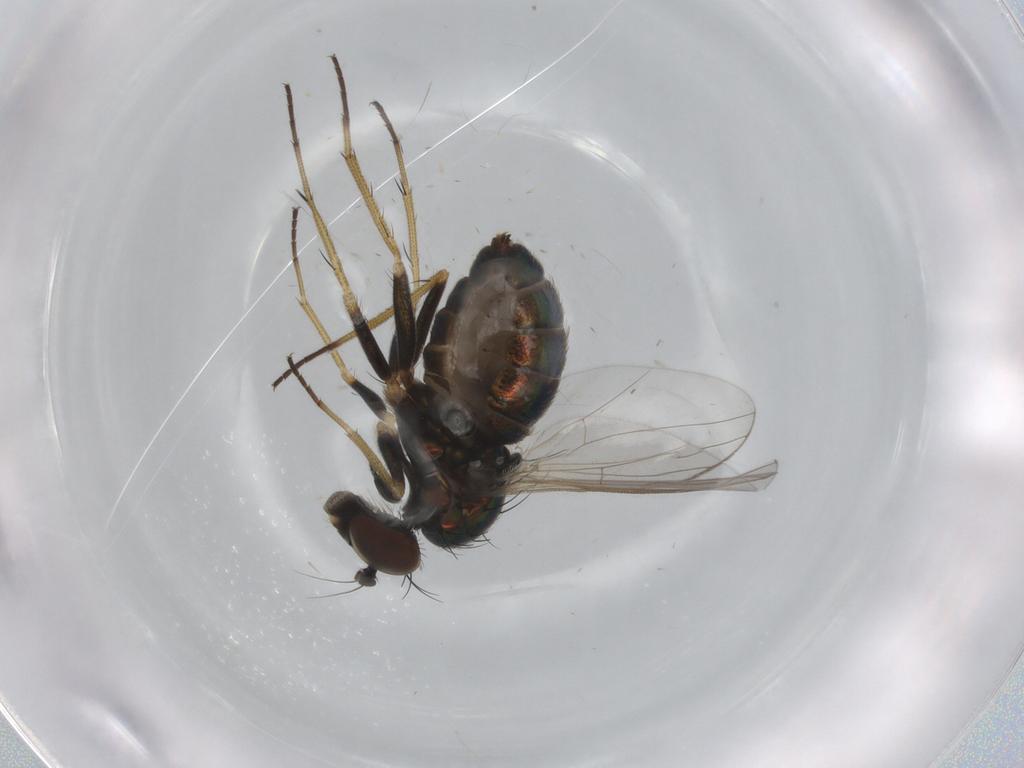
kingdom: Animalia
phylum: Arthropoda
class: Insecta
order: Diptera
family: Ephydridae
